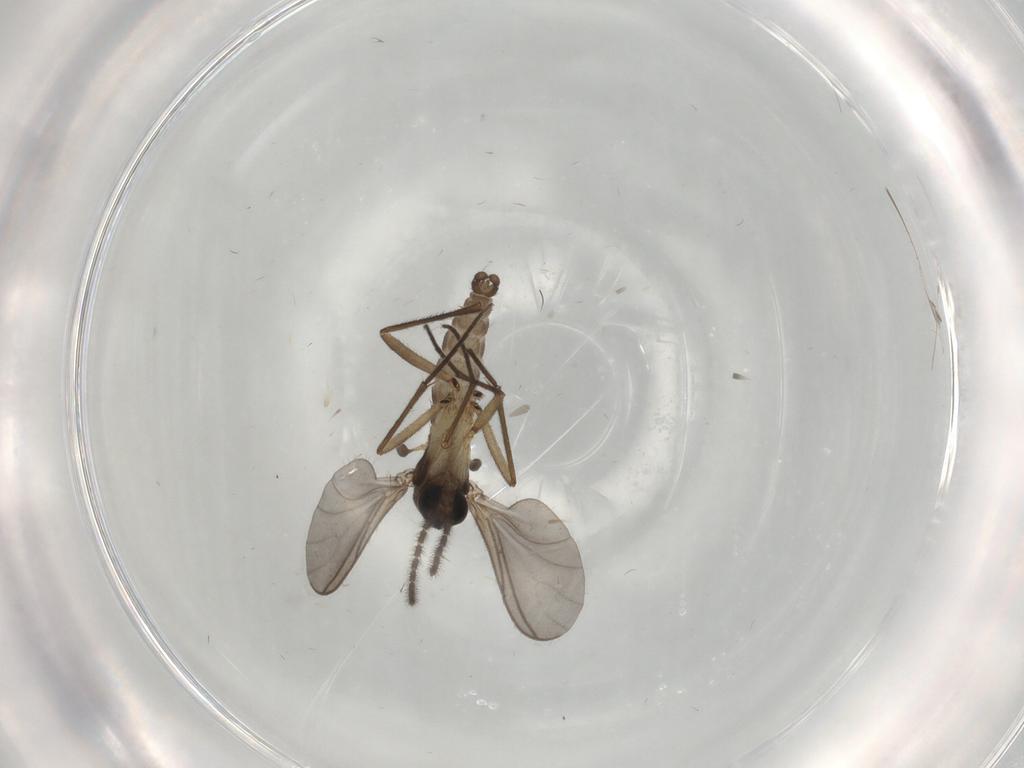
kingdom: Animalia
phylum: Arthropoda
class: Insecta
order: Diptera
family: Sciaridae
